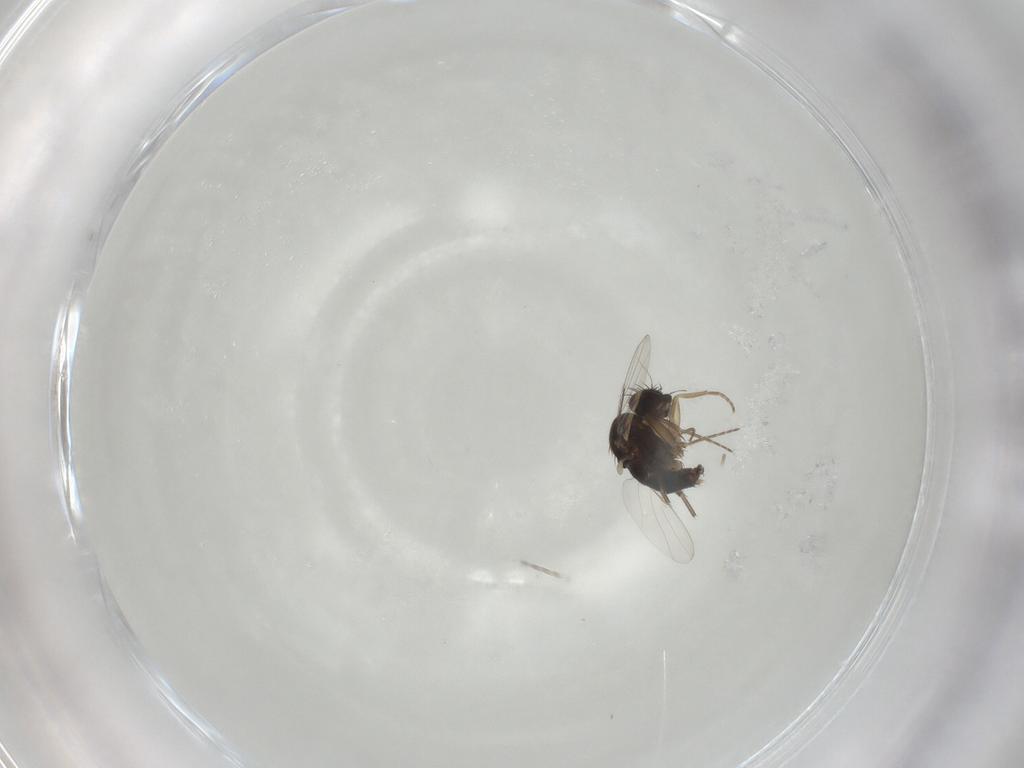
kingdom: Animalia
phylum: Arthropoda
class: Insecta
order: Diptera
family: Phoridae
